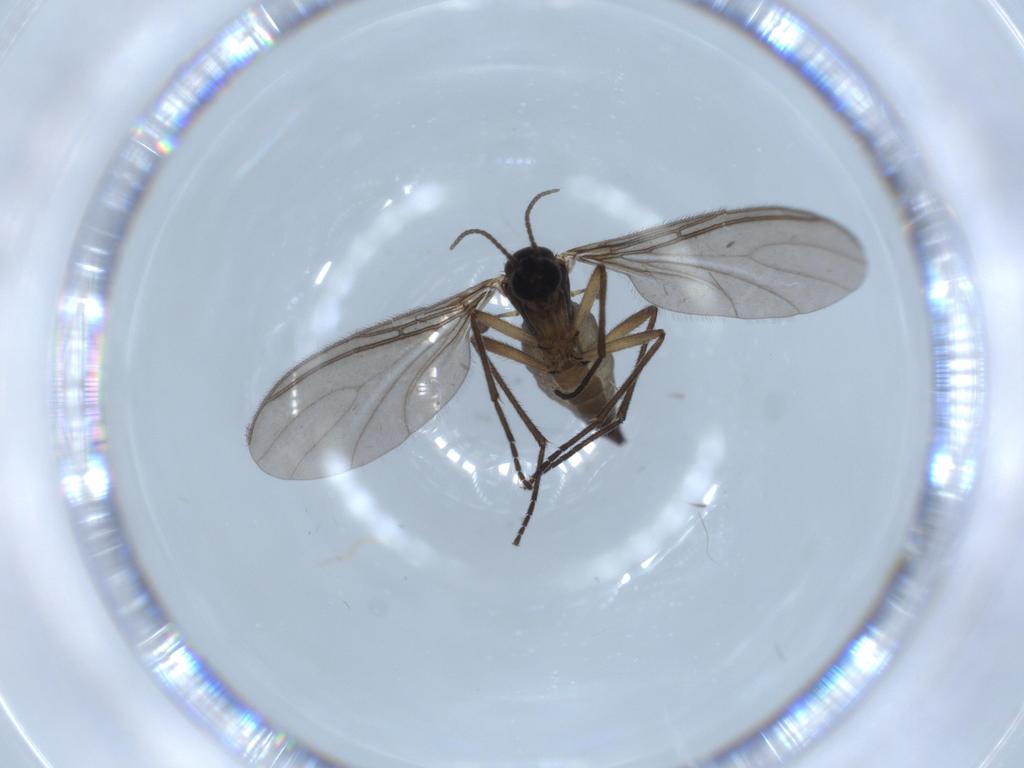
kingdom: Animalia
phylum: Arthropoda
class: Insecta
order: Diptera
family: Sciaridae
